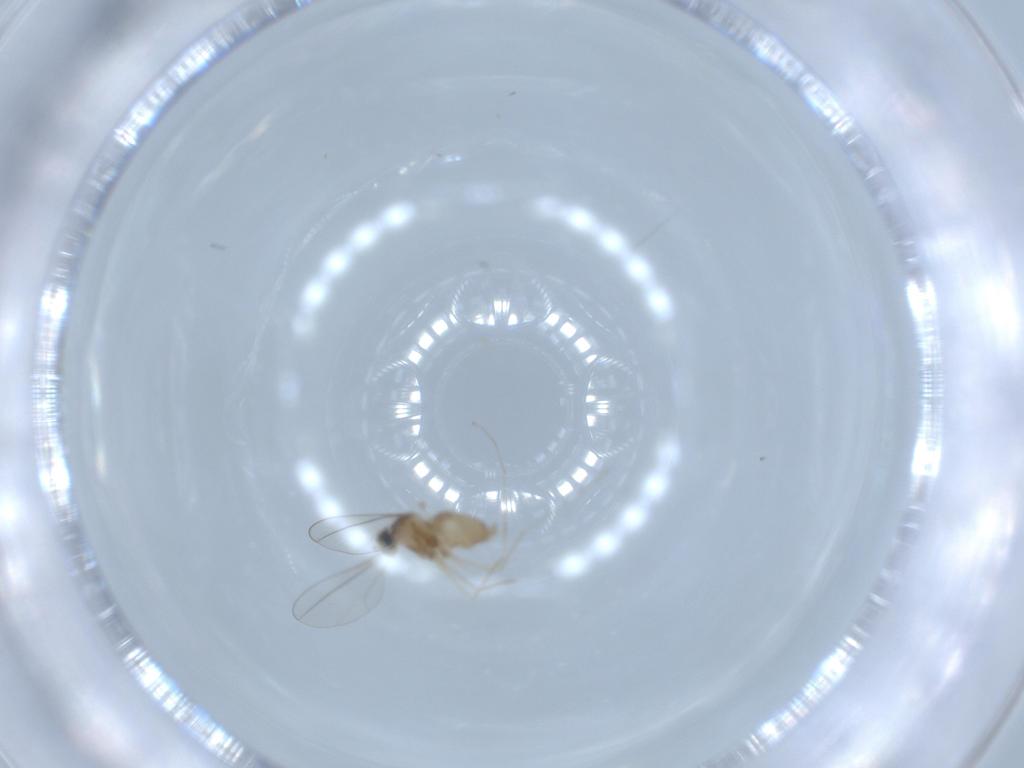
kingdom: Animalia
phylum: Arthropoda
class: Insecta
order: Diptera
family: Cecidomyiidae
